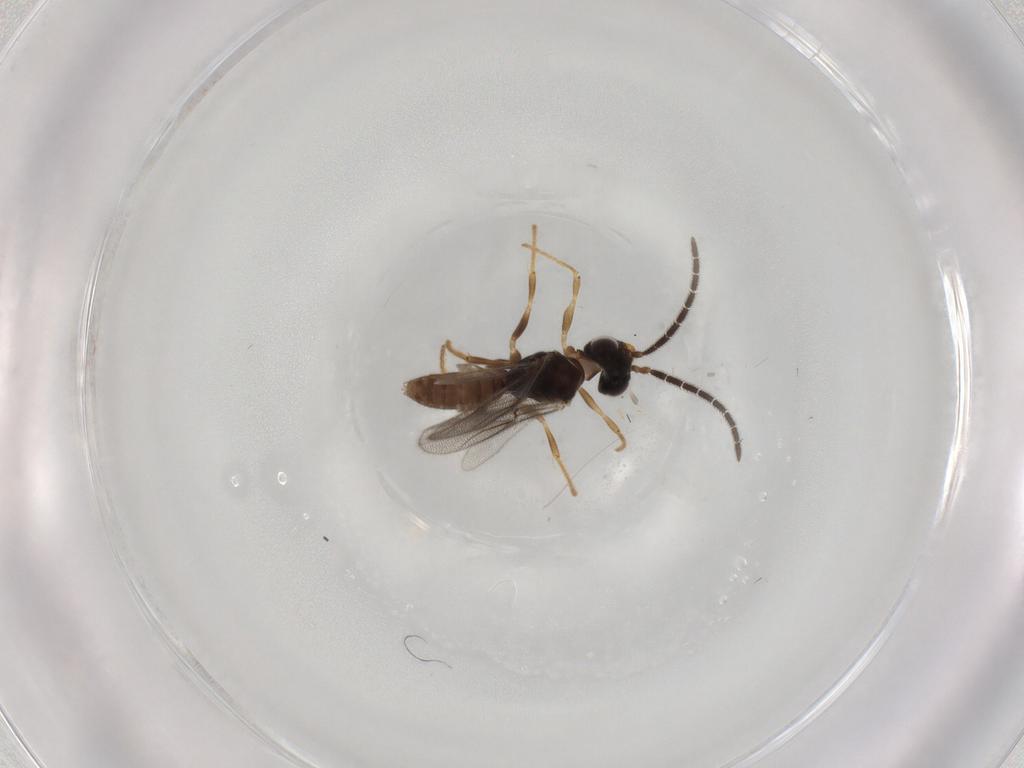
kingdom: Animalia
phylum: Arthropoda
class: Insecta
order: Hymenoptera
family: Dryinidae
